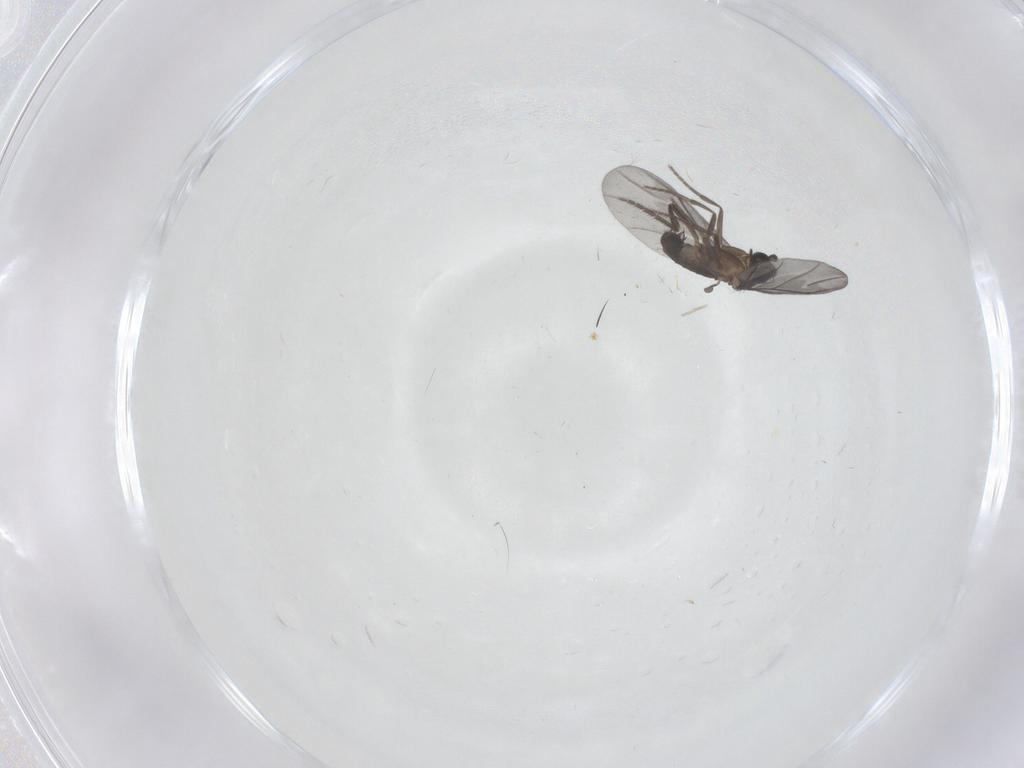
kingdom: Animalia
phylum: Arthropoda
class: Insecta
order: Diptera
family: Phoridae
